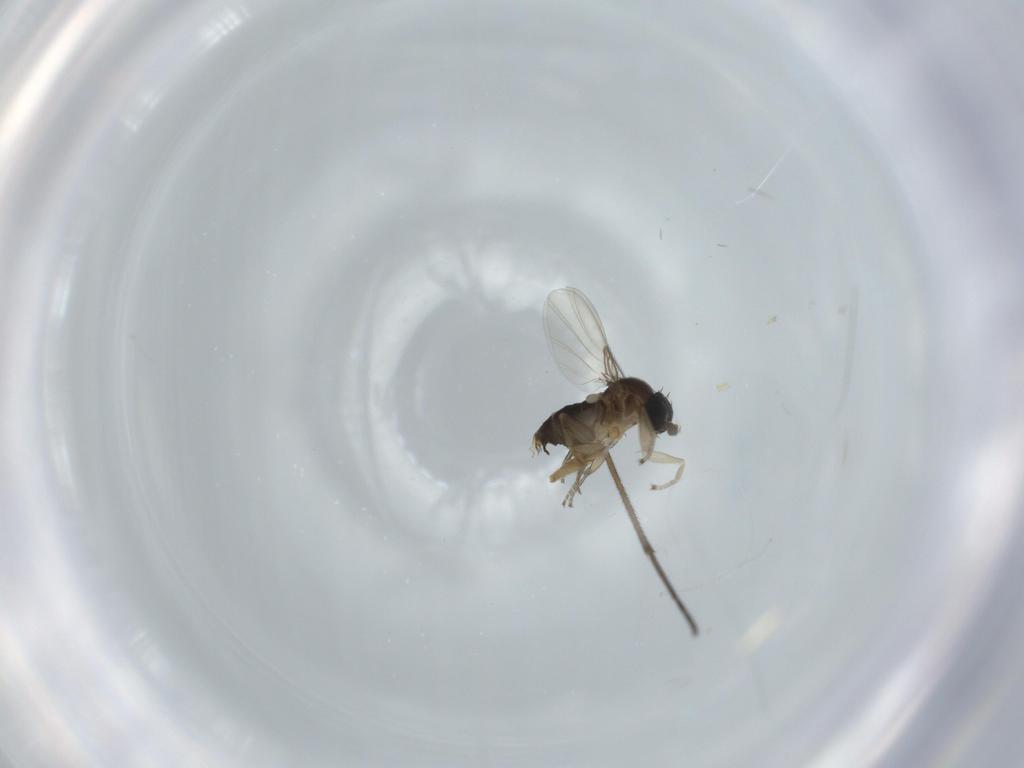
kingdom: Animalia
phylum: Arthropoda
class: Insecta
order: Diptera
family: Phoridae
